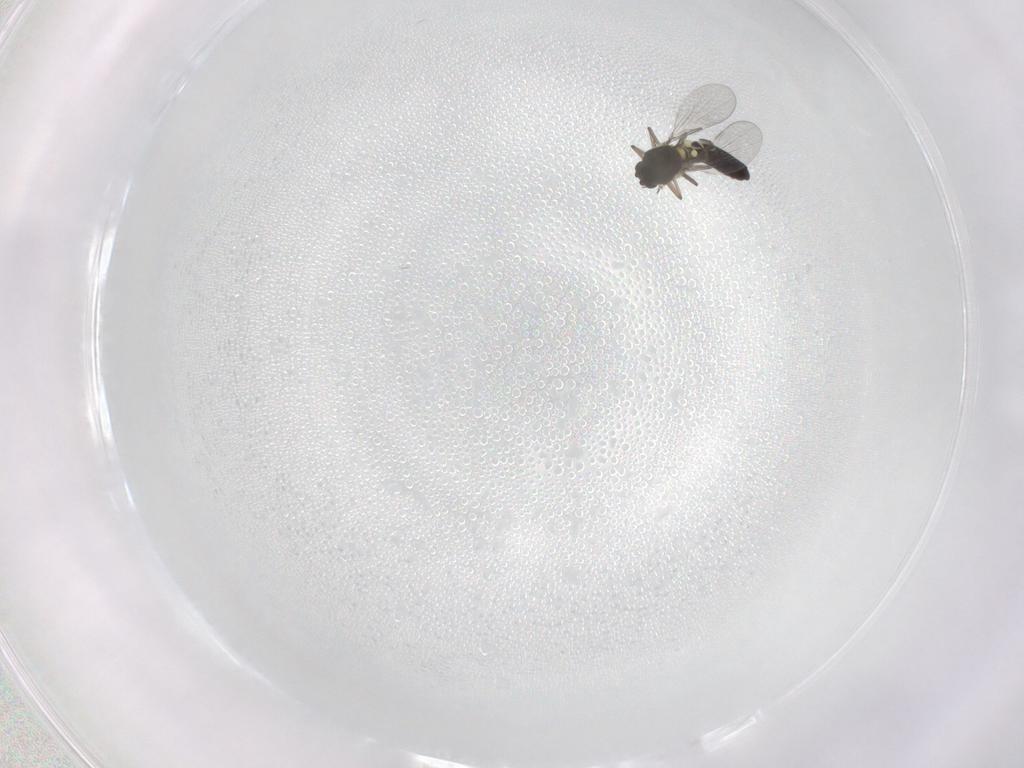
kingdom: Animalia
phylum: Arthropoda
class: Insecta
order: Diptera
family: Ceratopogonidae
